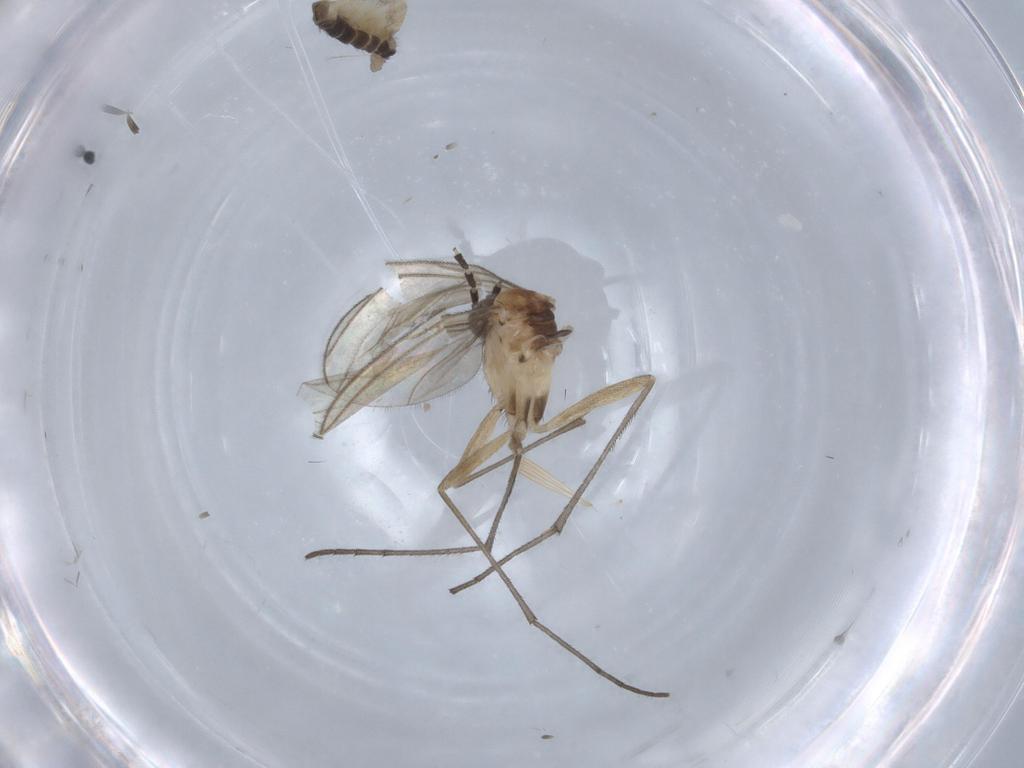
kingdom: Animalia
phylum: Arthropoda
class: Insecta
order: Diptera
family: Sciaridae
